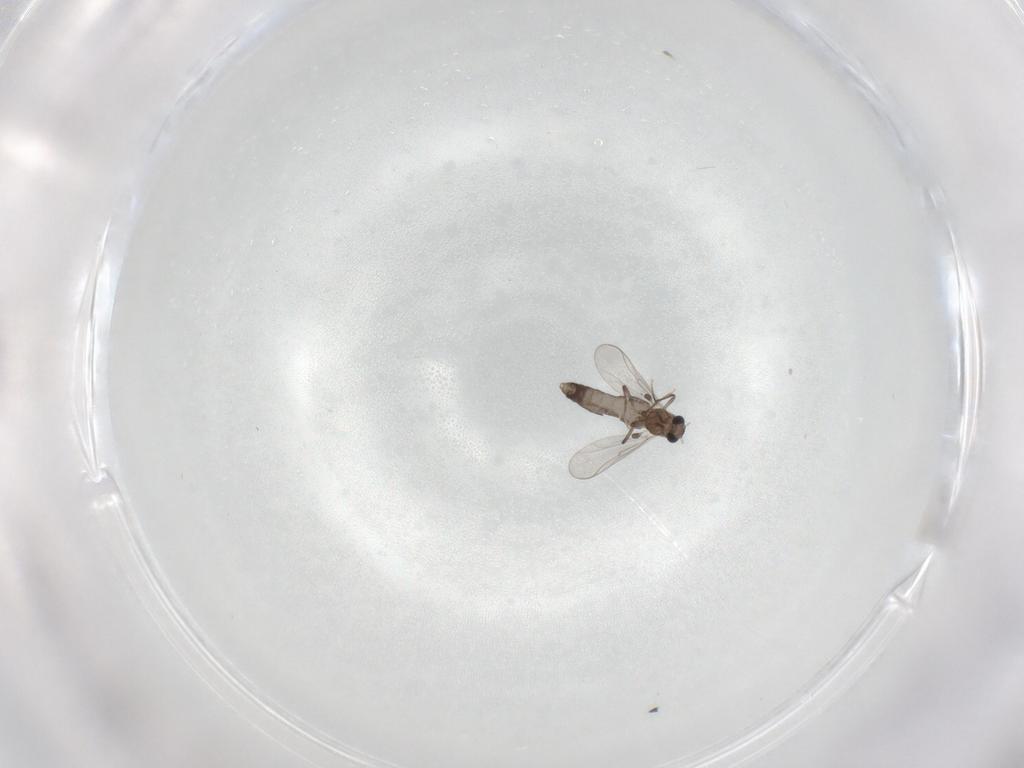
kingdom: Animalia
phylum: Arthropoda
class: Insecta
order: Diptera
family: Chironomidae
